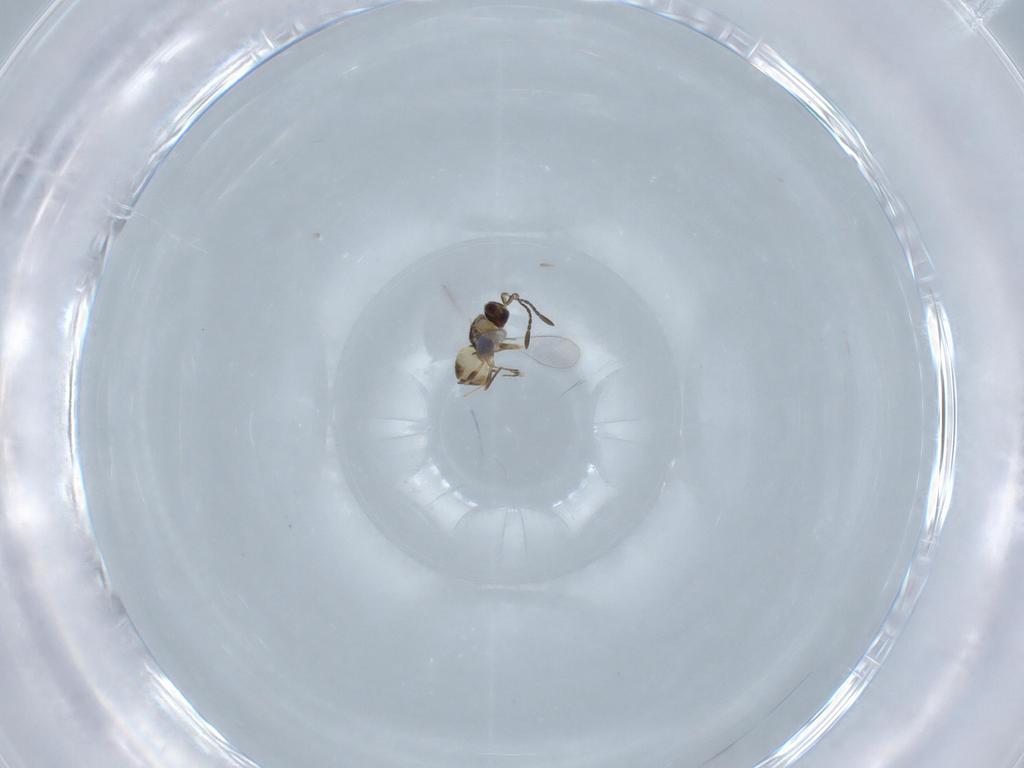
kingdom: Animalia
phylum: Arthropoda
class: Insecta
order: Hymenoptera
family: Mymaridae
